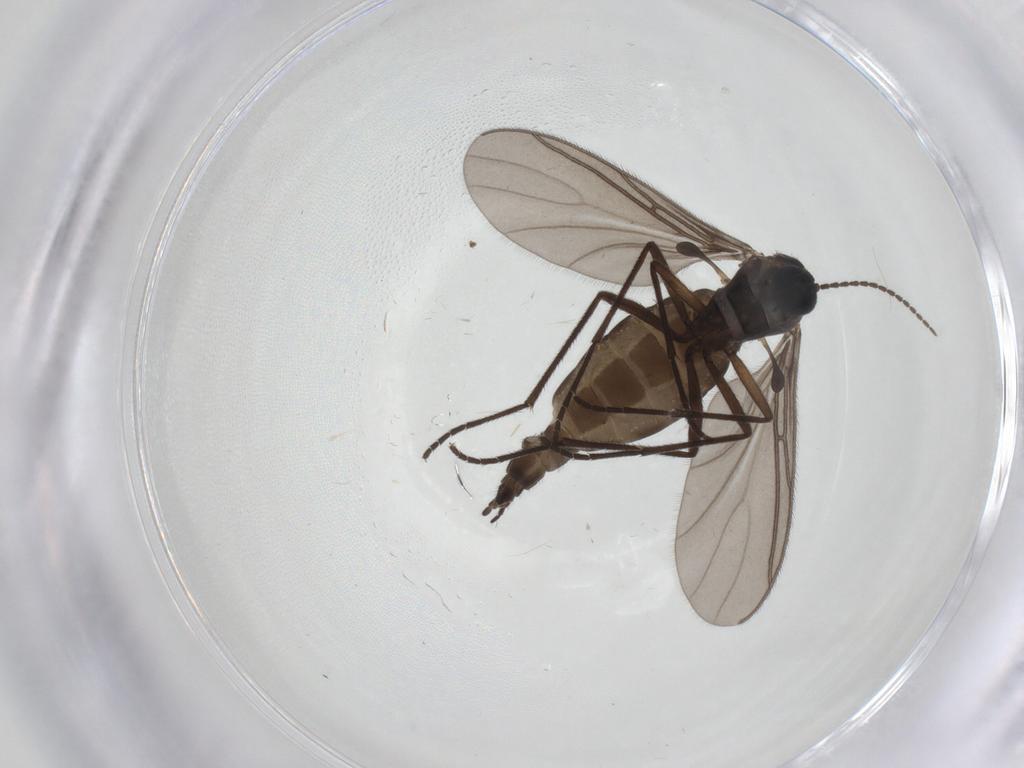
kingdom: Animalia
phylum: Arthropoda
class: Insecta
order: Diptera
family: Sciaridae
